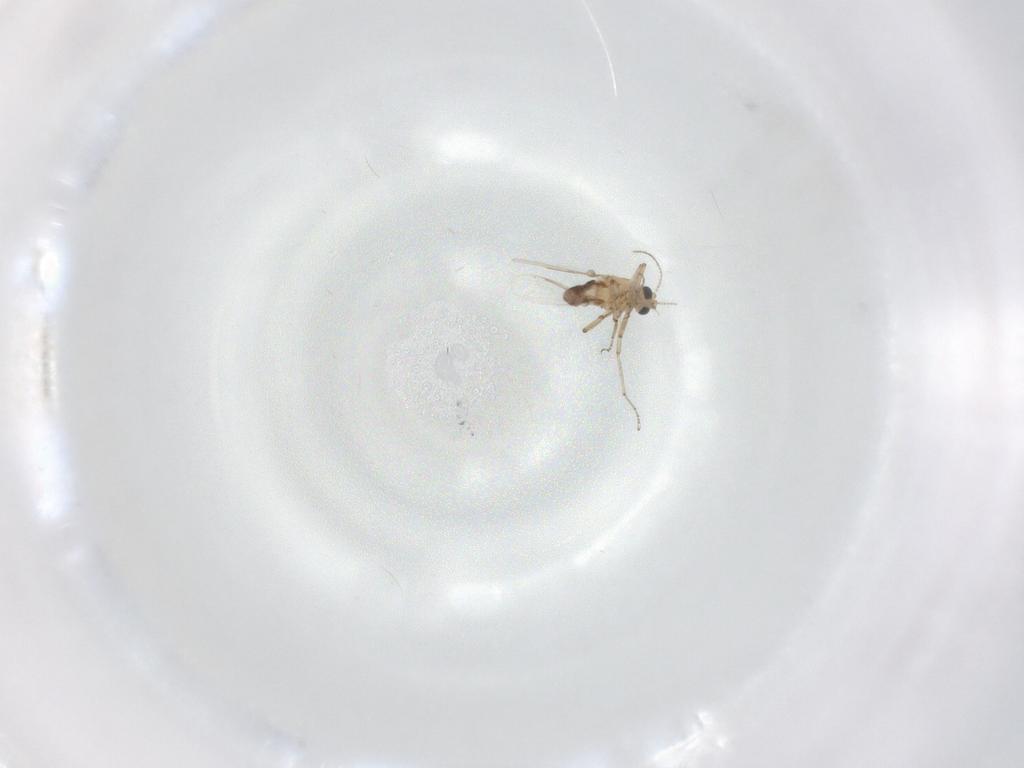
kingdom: Animalia
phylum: Arthropoda
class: Insecta
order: Diptera
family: Ceratopogonidae
